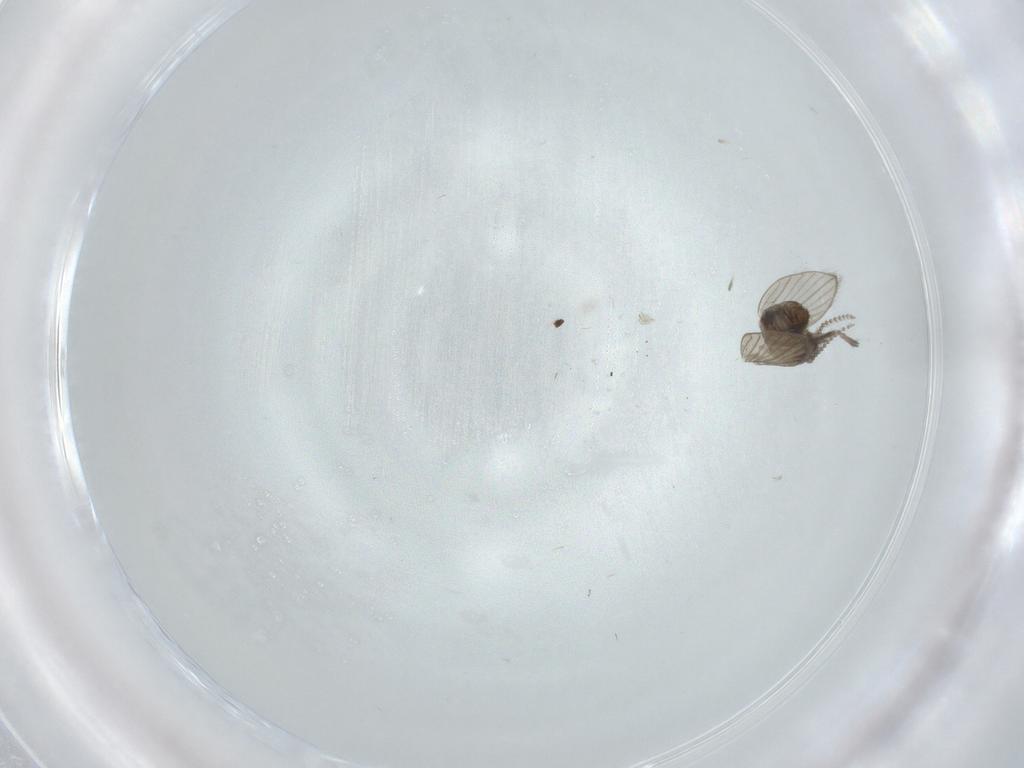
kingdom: Animalia
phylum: Arthropoda
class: Insecta
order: Diptera
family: Psychodidae
